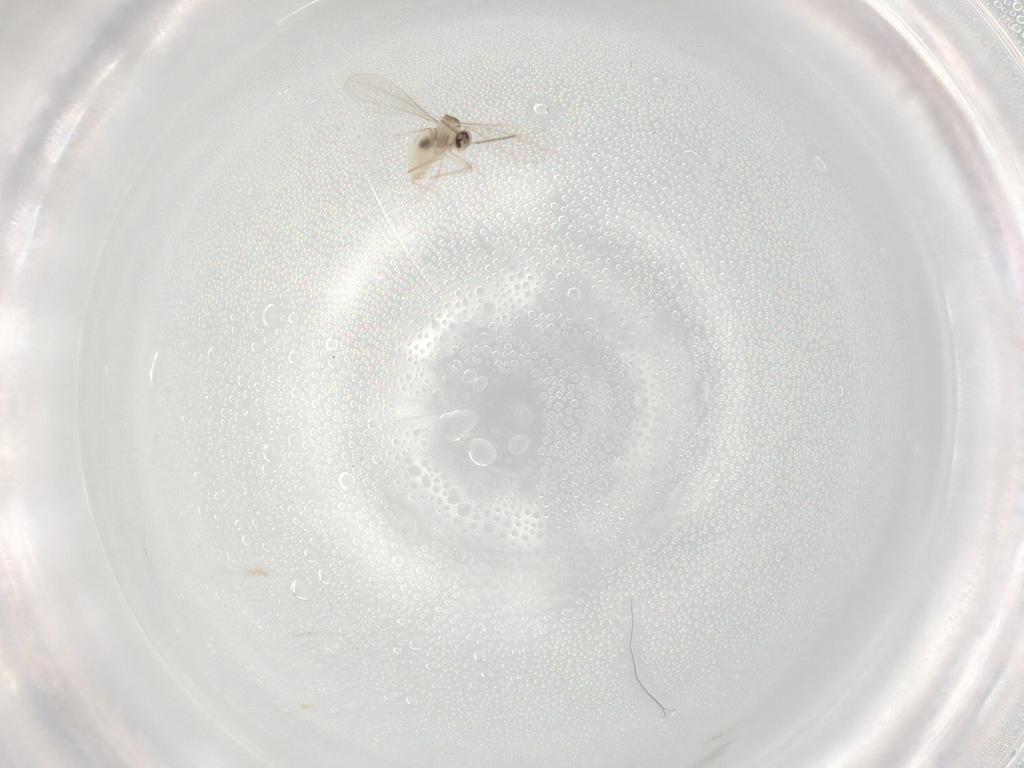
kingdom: Animalia
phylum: Arthropoda
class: Insecta
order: Diptera
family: Cecidomyiidae
